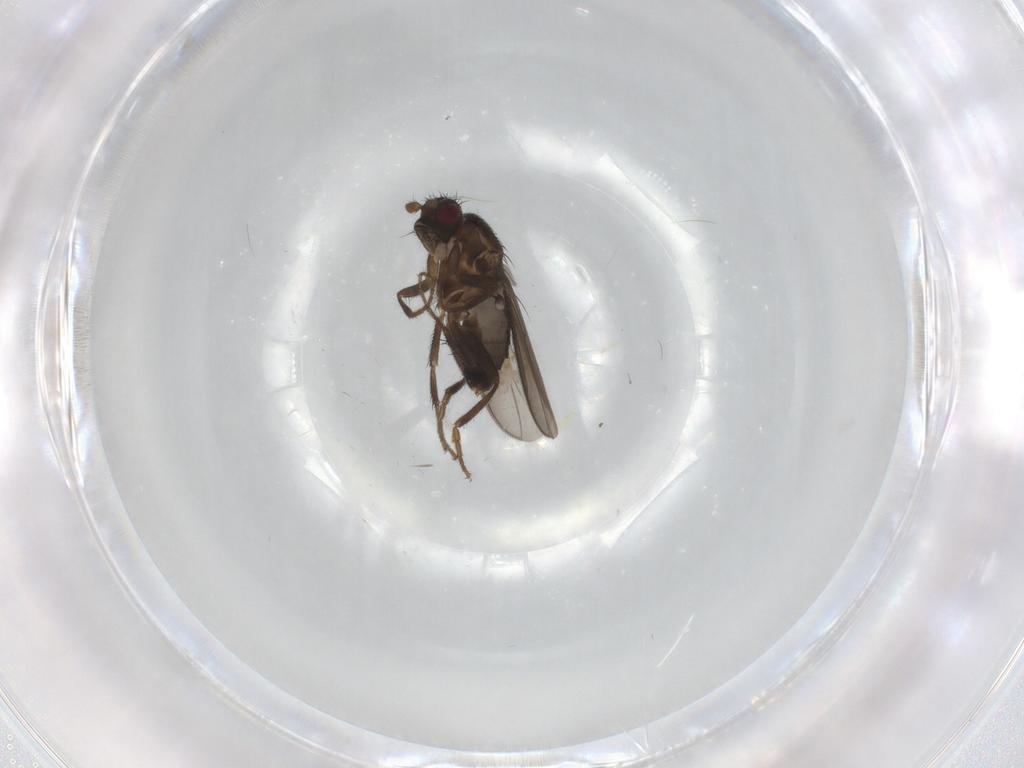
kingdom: Animalia
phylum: Arthropoda
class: Insecta
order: Diptera
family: Sphaeroceridae
